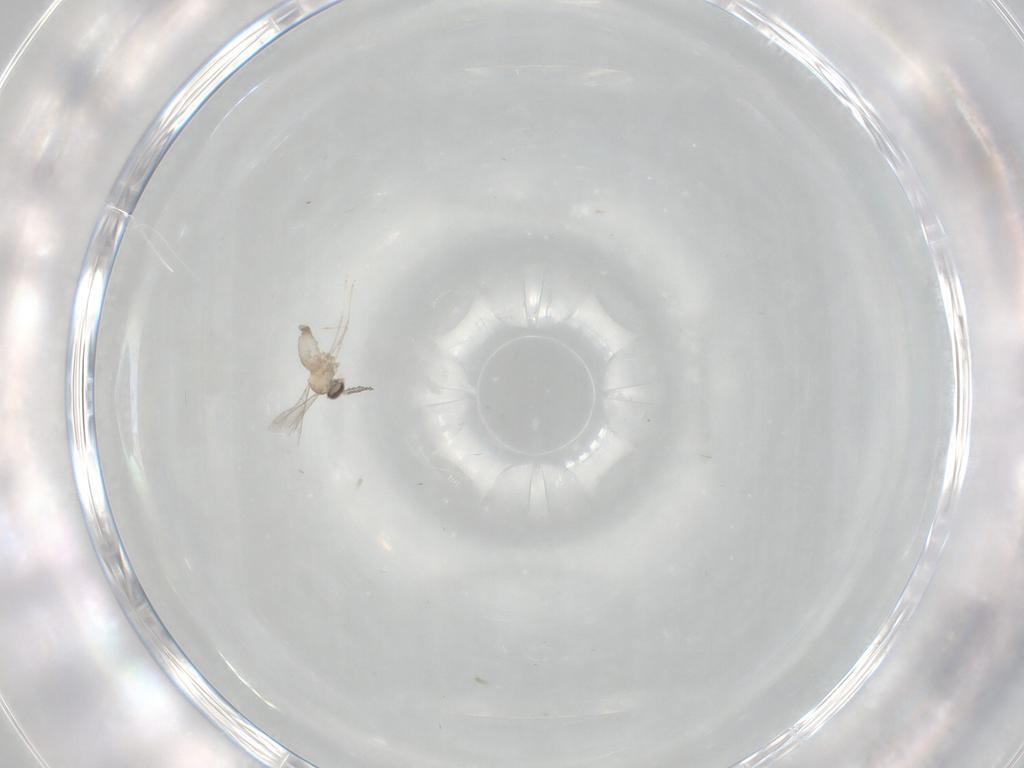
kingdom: Animalia
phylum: Arthropoda
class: Insecta
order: Diptera
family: Cecidomyiidae
